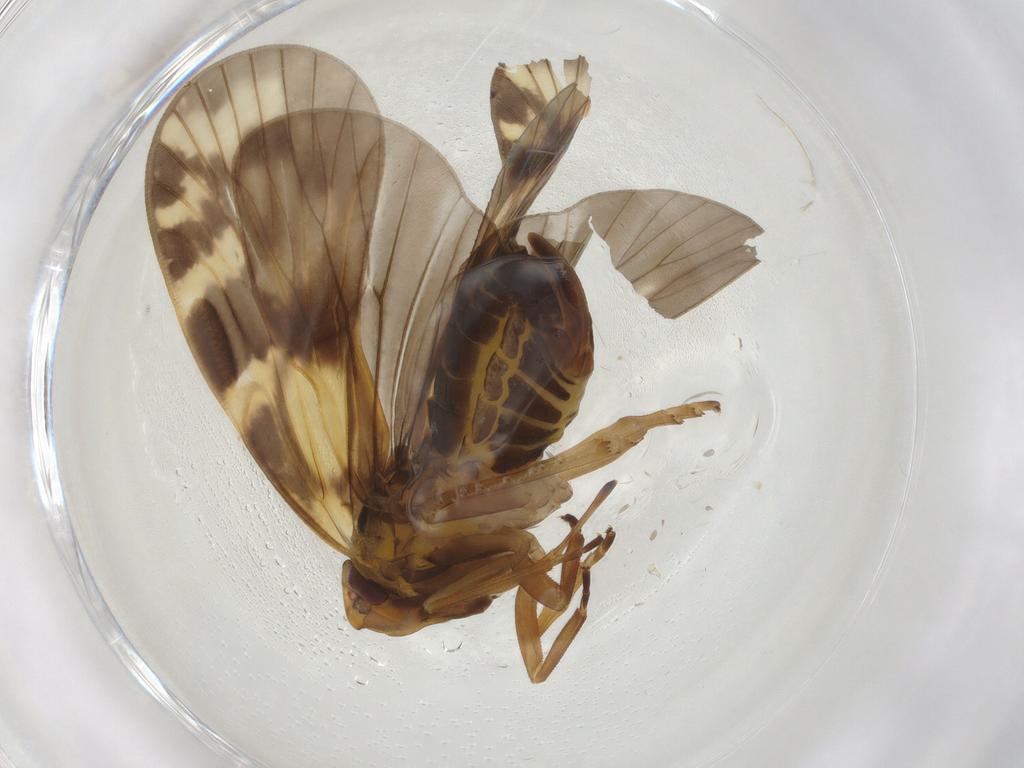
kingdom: Animalia
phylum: Arthropoda
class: Insecta
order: Hemiptera
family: Cixiidae
